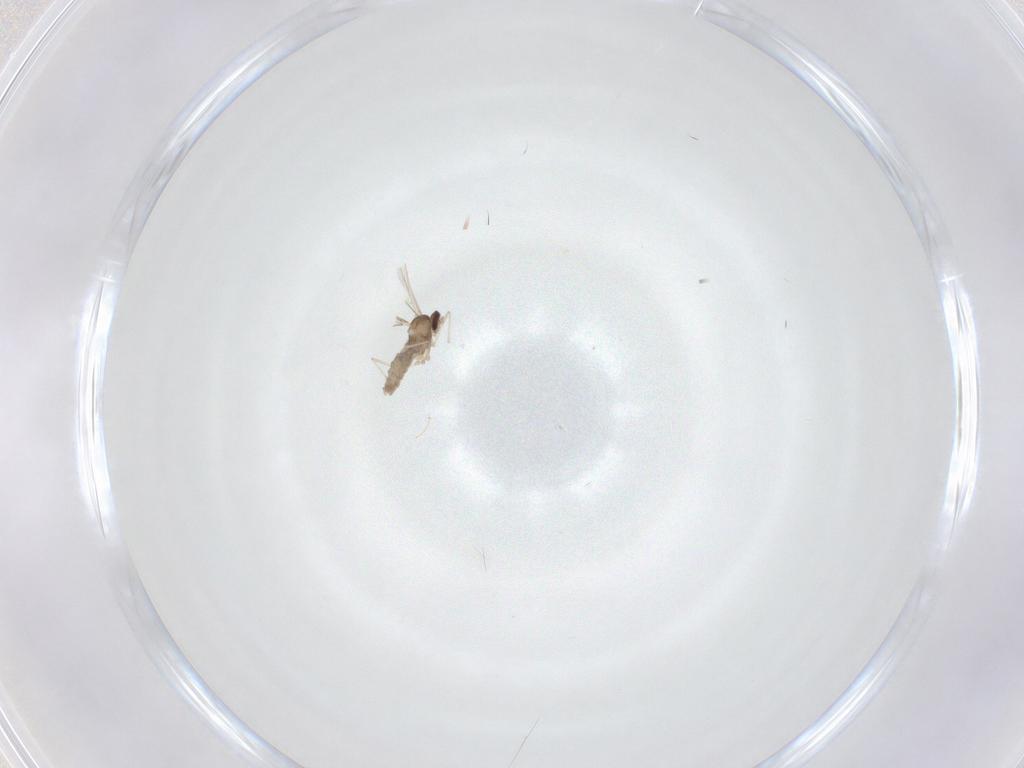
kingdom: Animalia
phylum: Arthropoda
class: Insecta
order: Diptera
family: Cecidomyiidae
